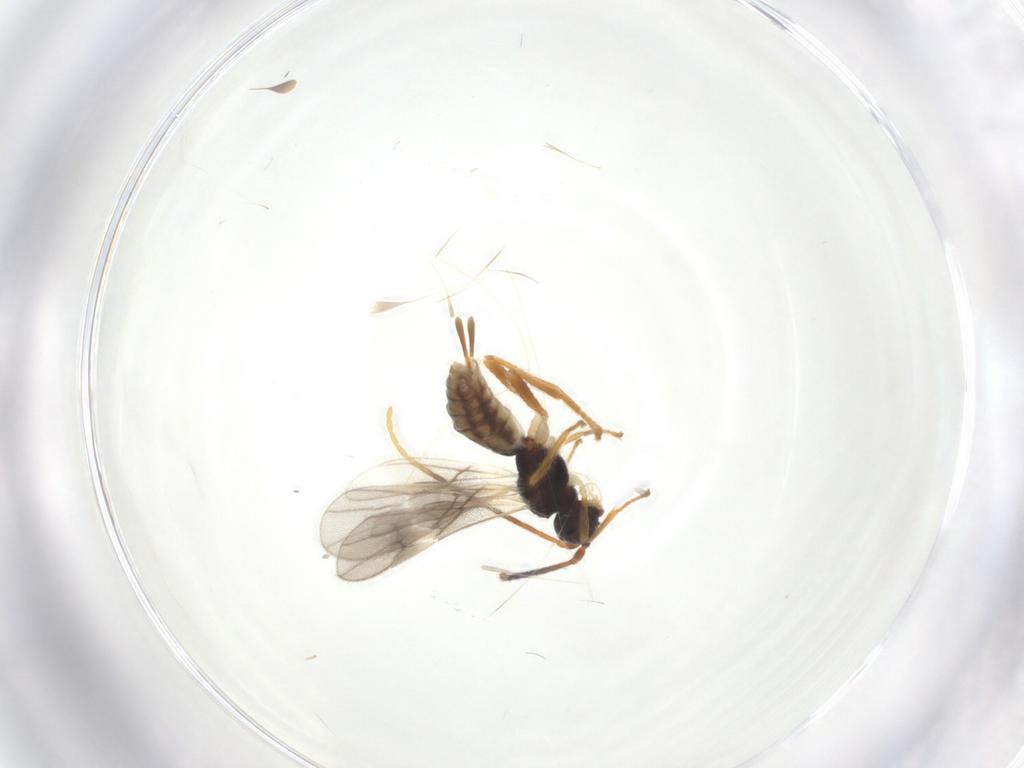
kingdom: Animalia
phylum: Arthropoda
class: Insecta
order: Hymenoptera
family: Braconidae
